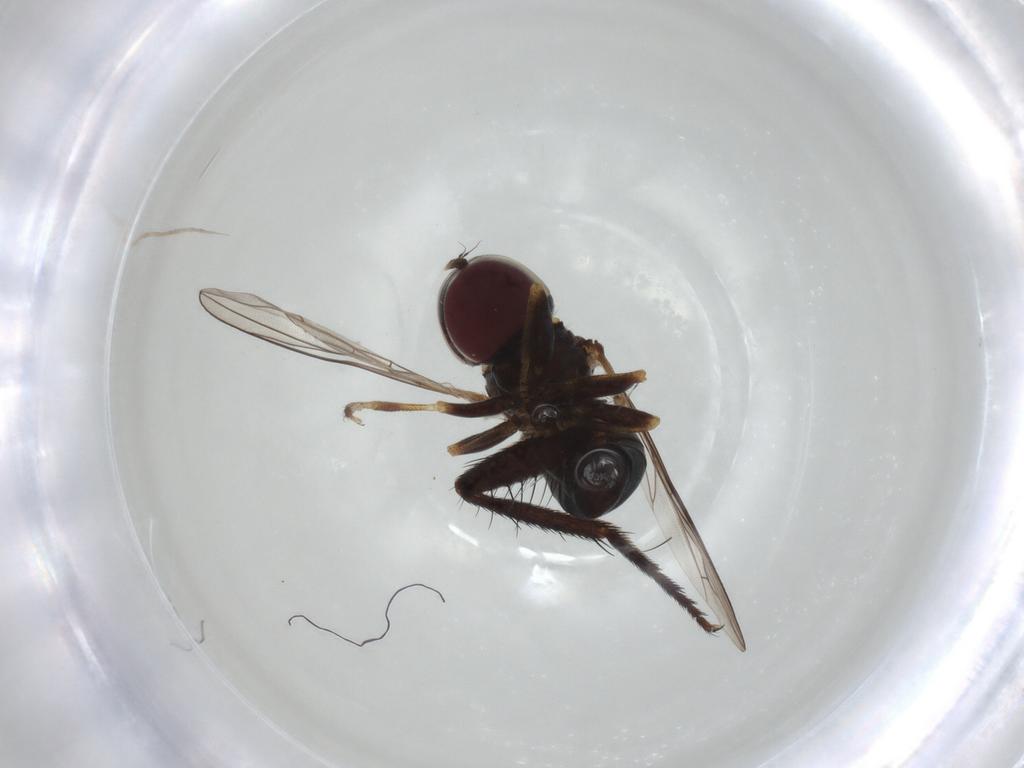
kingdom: Animalia
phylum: Arthropoda
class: Insecta
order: Diptera
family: Sarcophagidae
